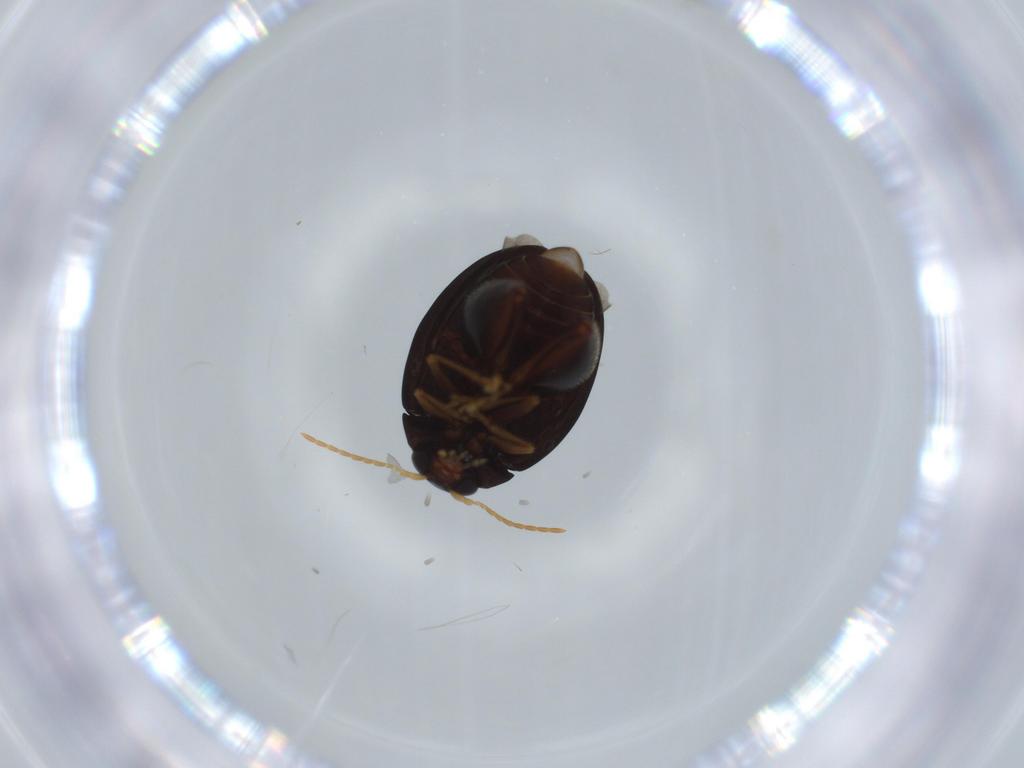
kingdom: Animalia
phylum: Arthropoda
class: Insecta
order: Coleoptera
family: Chrysomelidae
